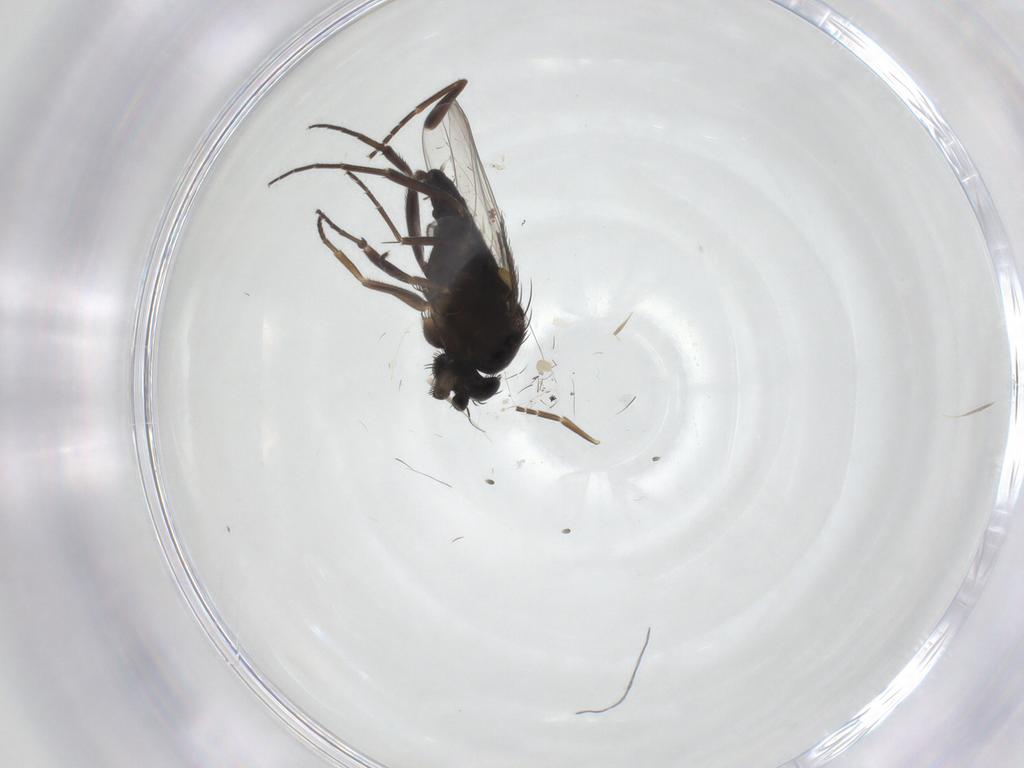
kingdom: Animalia
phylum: Arthropoda
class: Insecta
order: Diptera
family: Phoridae
